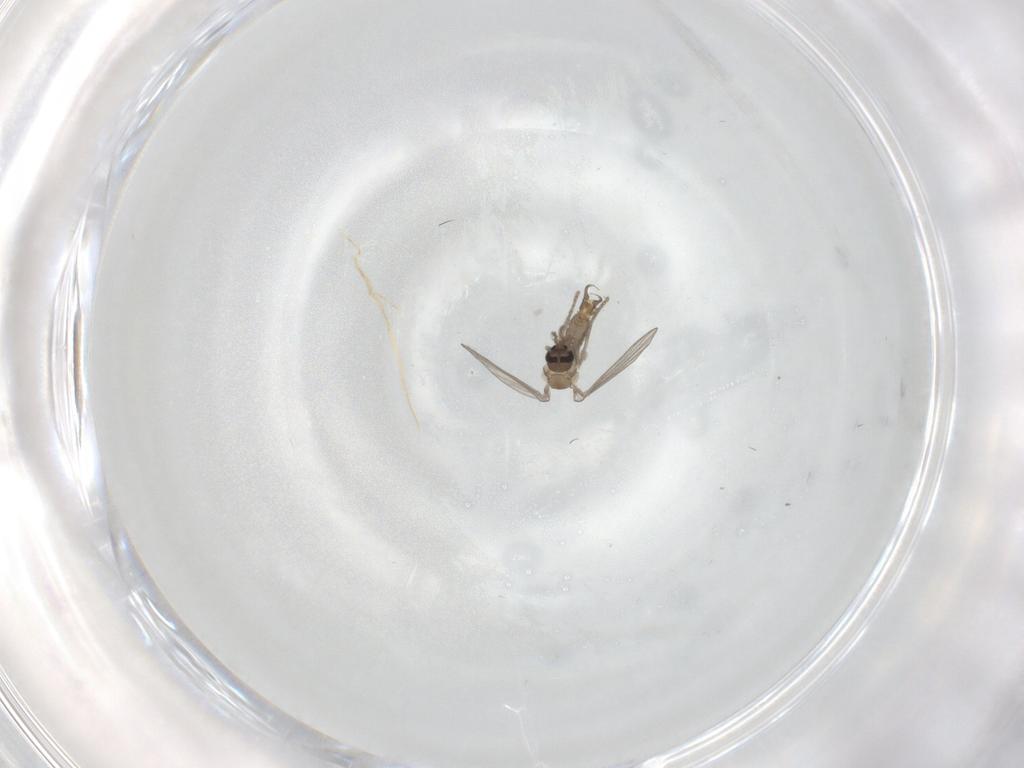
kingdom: Animalia
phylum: Arthropoda
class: Insecta
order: Diptera
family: Psychodidae
